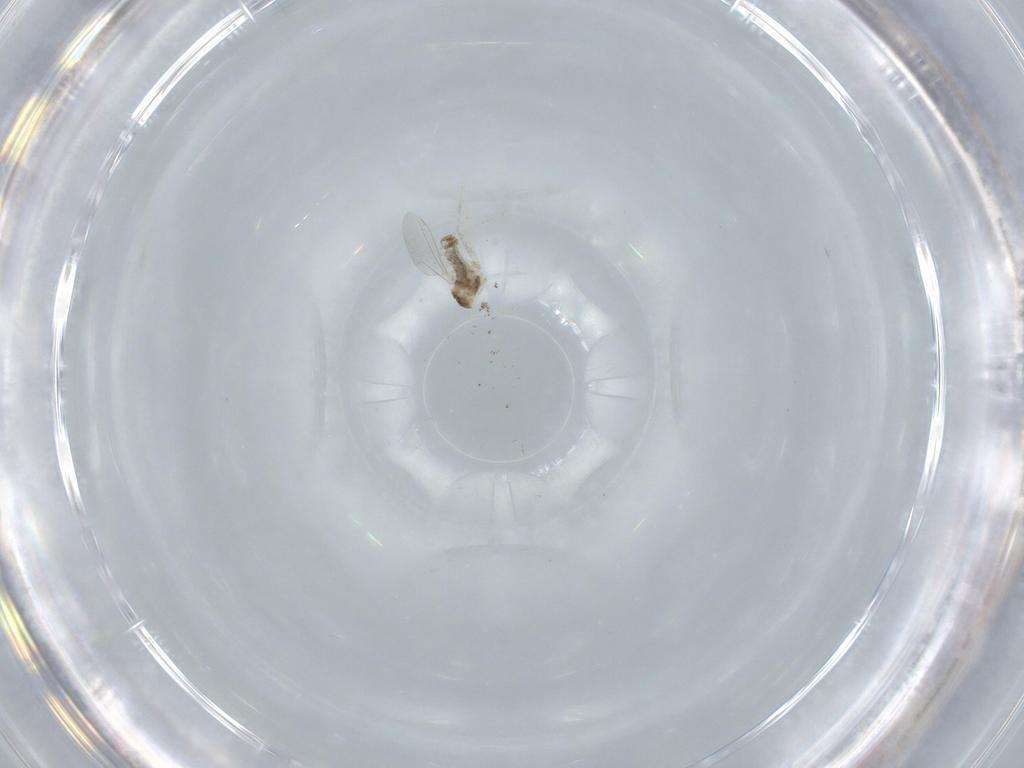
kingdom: Animalia
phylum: Arthropoda
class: Insecta
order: Diptera
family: Cecidomyiidae
